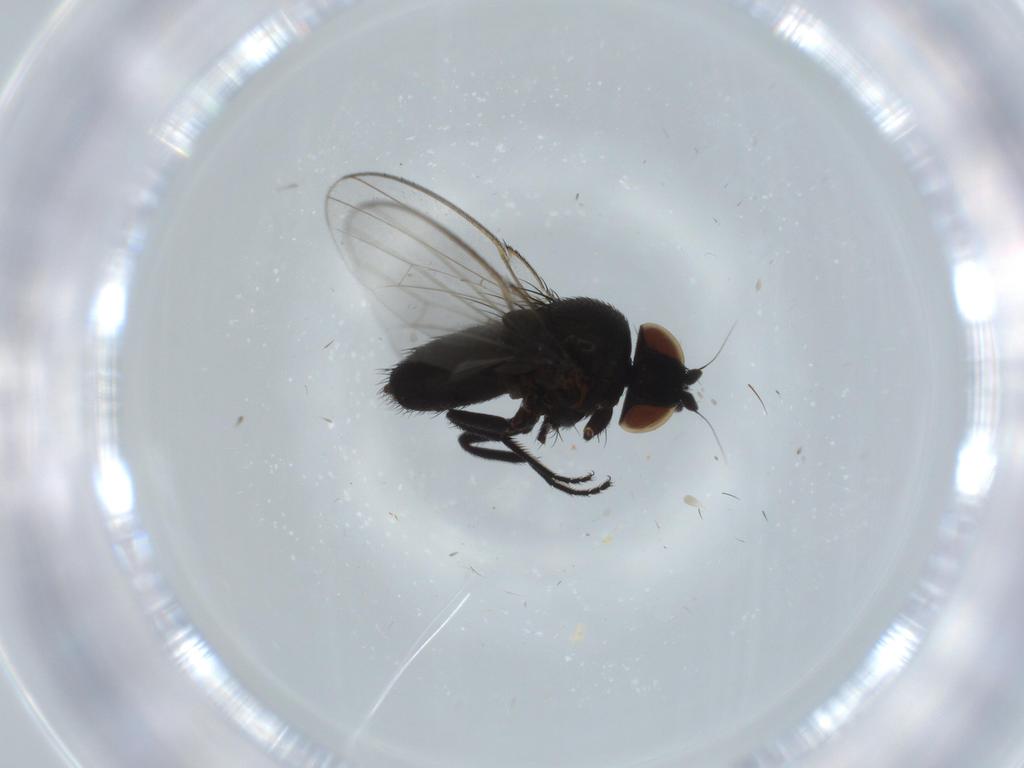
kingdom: Animalia
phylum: Arthropoda
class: Insecta
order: Diptera
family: Milichiidae
